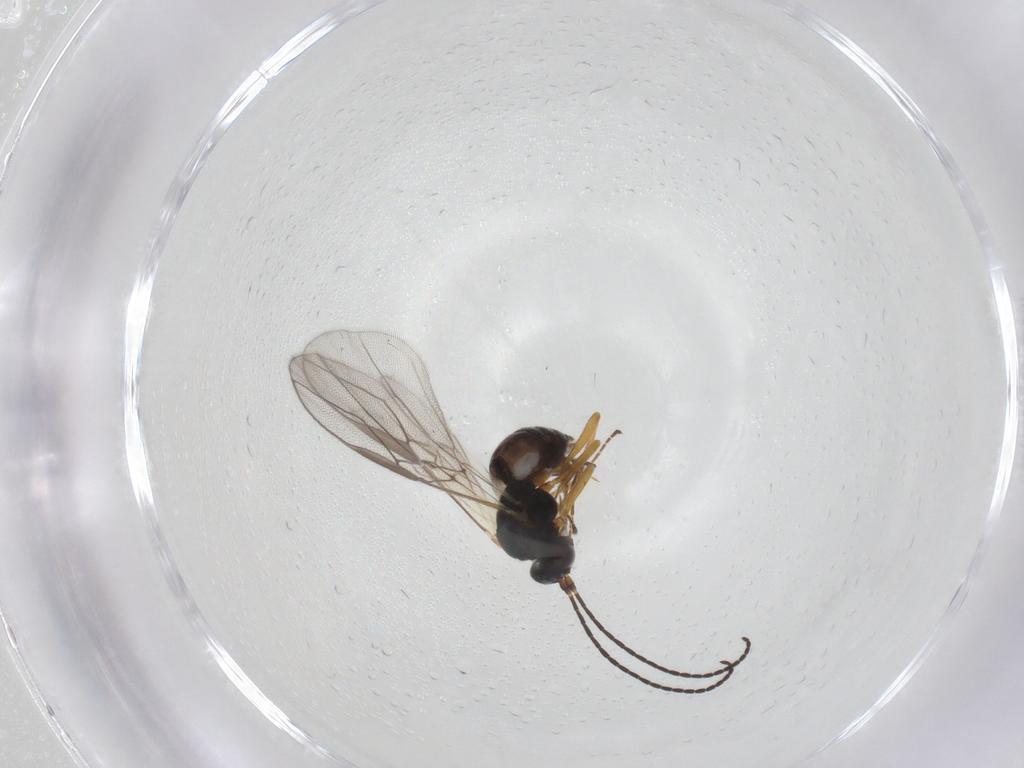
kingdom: Animalia
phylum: Arthropoda
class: Insecta
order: Hymenoptera
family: Braconidae
